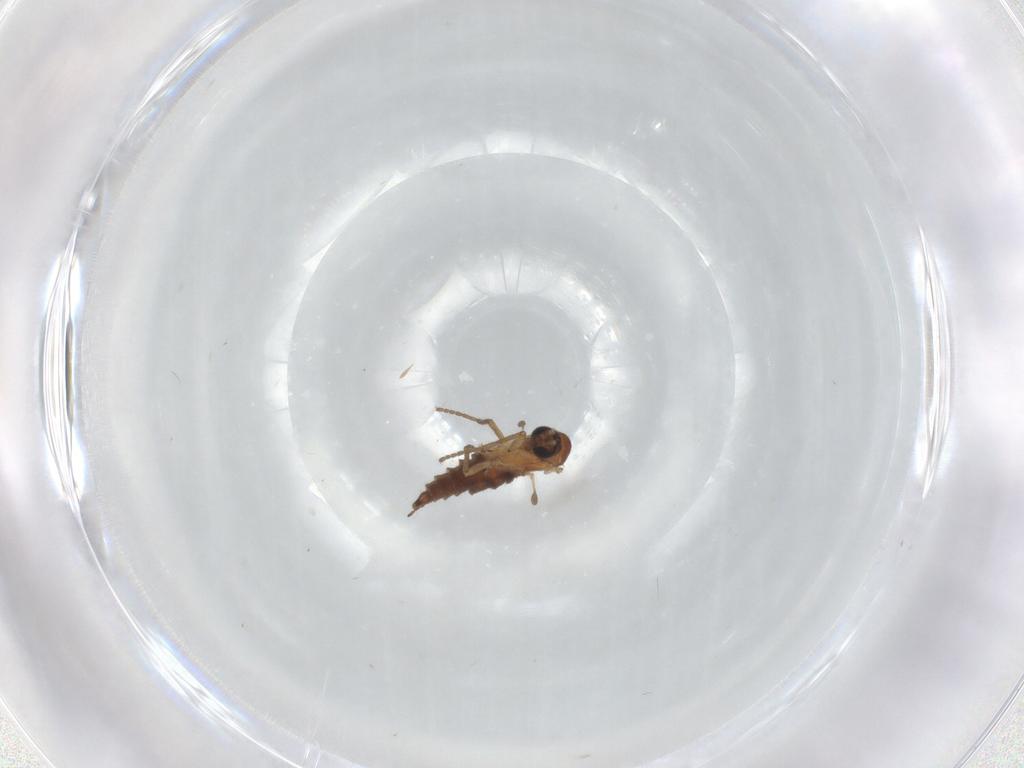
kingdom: Animalia
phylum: Arthropoda
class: Insecta
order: Diptera
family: Sciaridae
